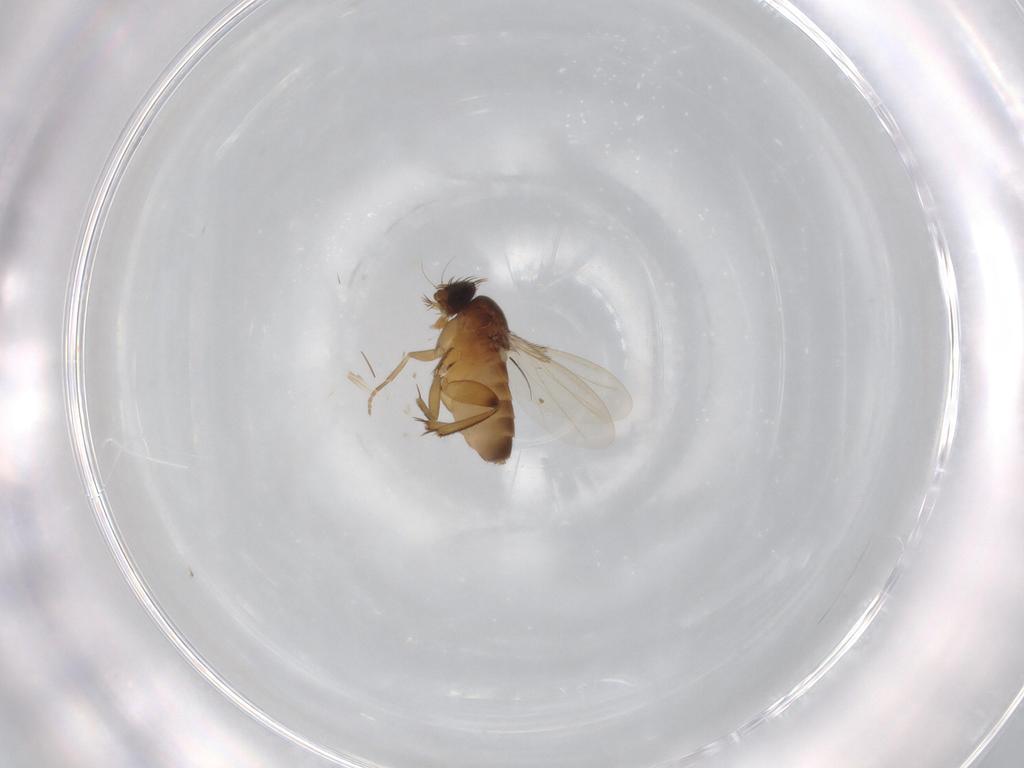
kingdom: Animalia
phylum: Arthropoda
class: Insecta
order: Diptera
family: Phoridae
